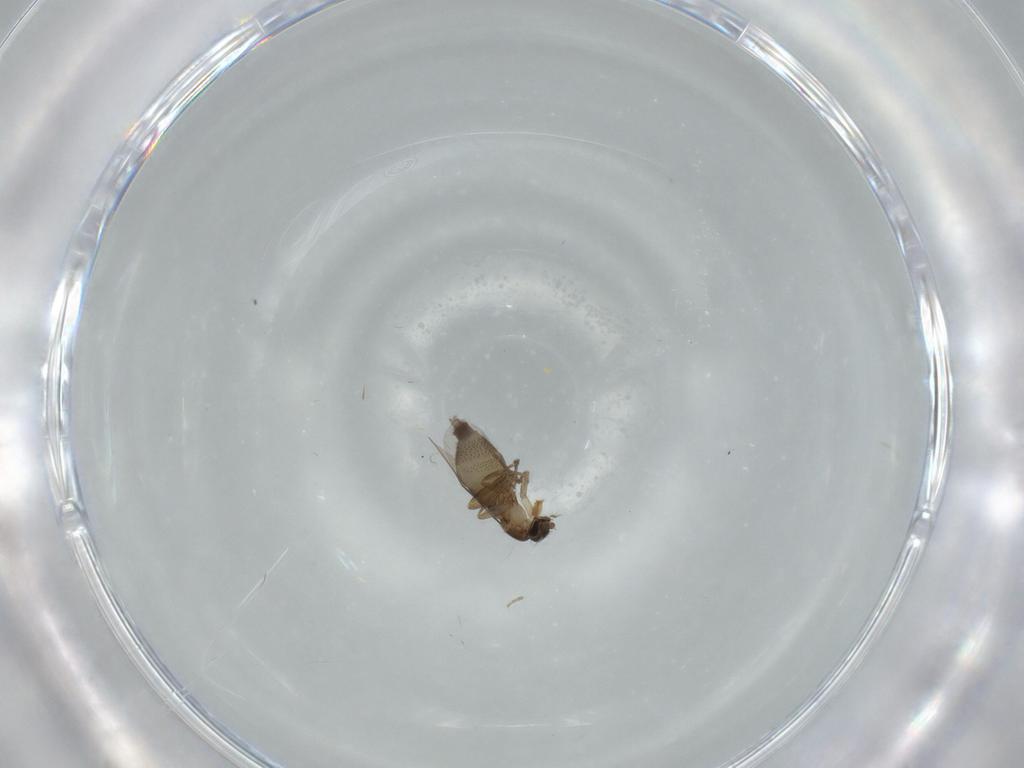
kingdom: Animalia
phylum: Arthropoda
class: Insecta
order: Diptera
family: Phoridae
